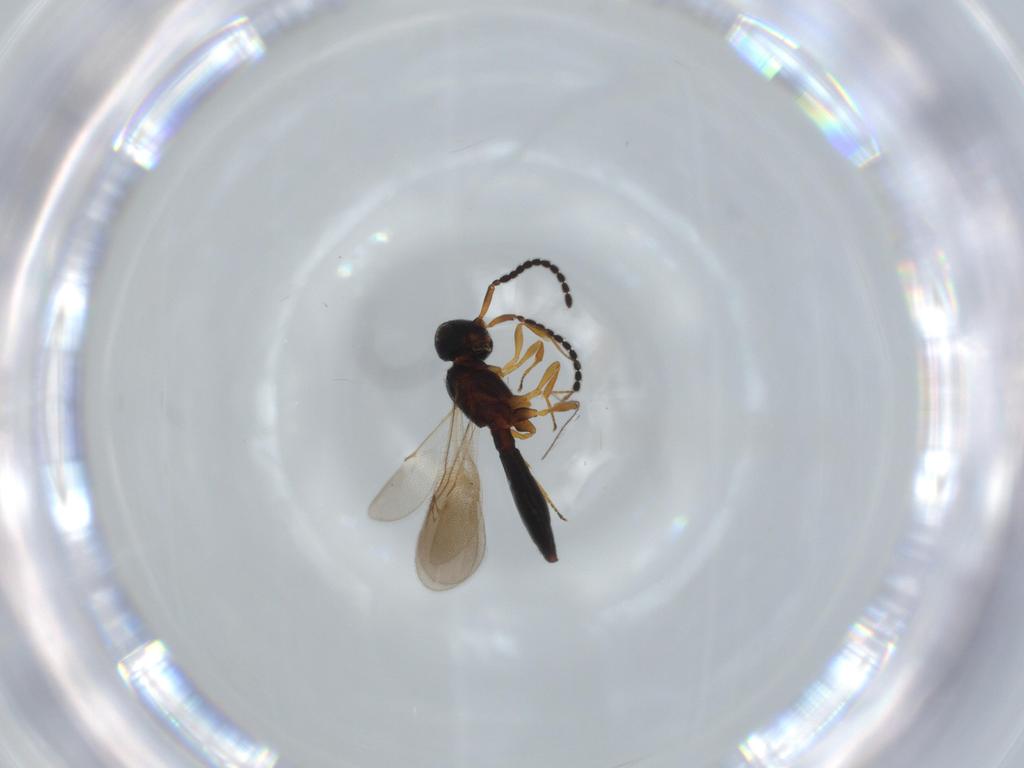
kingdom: Animalia
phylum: Arthropoda
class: Insecta
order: Hymenoptera
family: Scelionidae
